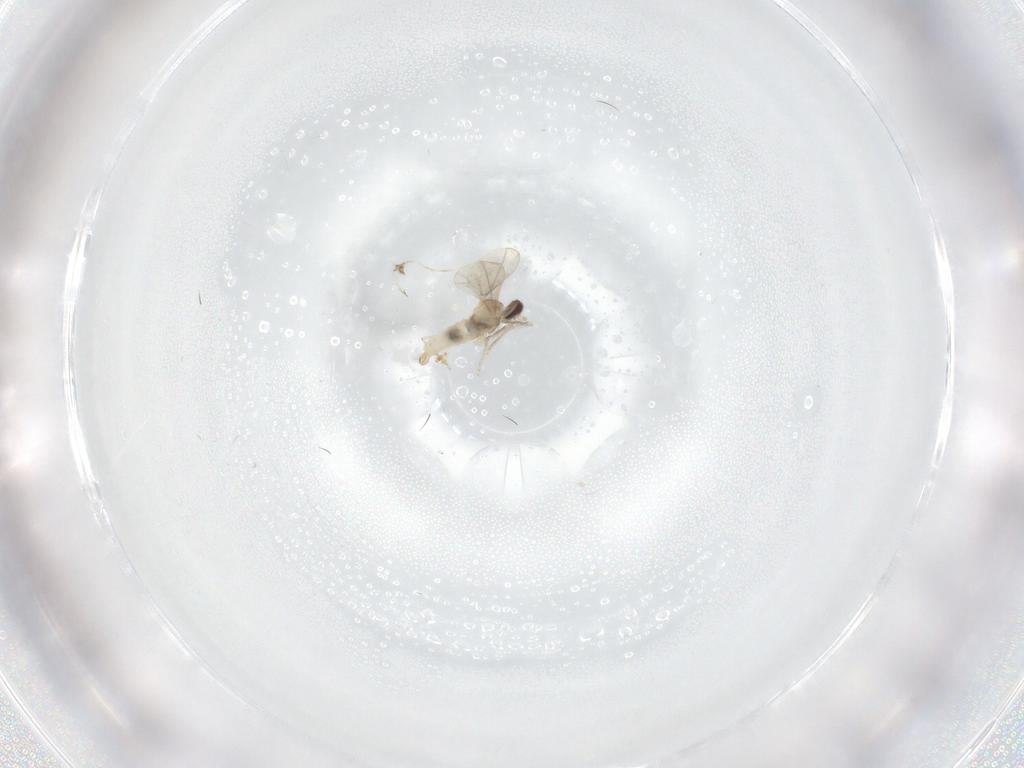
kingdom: Animalia
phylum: Arthropoda
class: Insecta
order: Diptera
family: Cecidomyiidae
